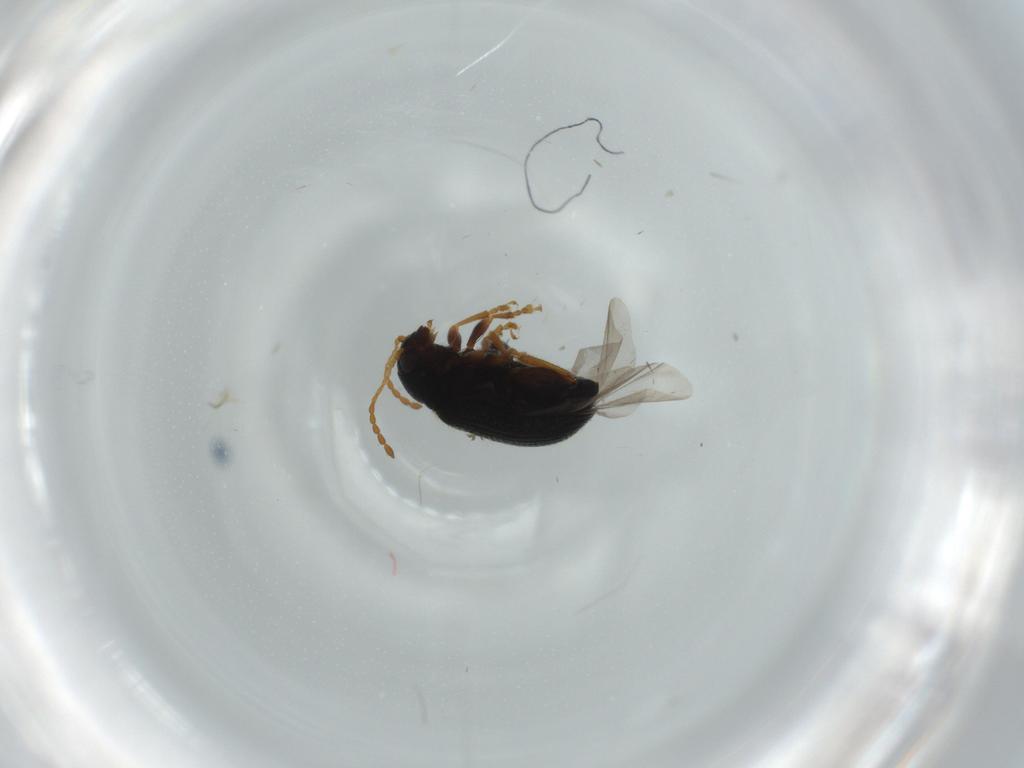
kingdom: Animalia
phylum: Arthropoda
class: Insecta
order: Coleoptera
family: Chrysomelidae
